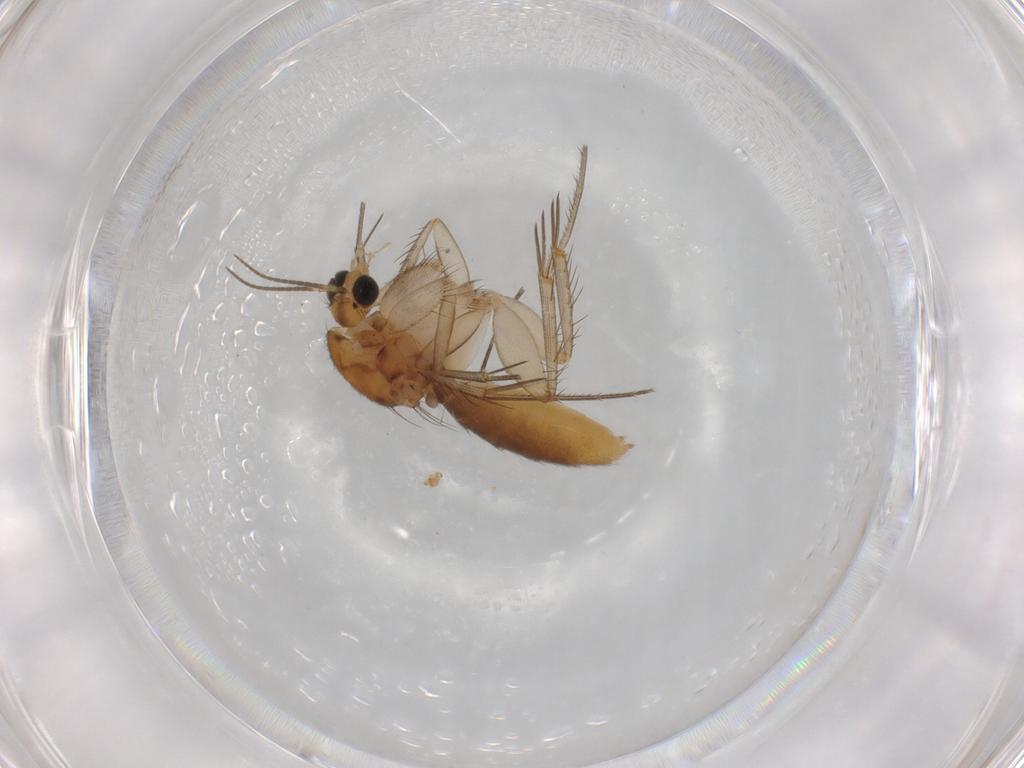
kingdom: Animalia
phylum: Arthropoda
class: Insecta
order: Diptera
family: Mycetophilidae
